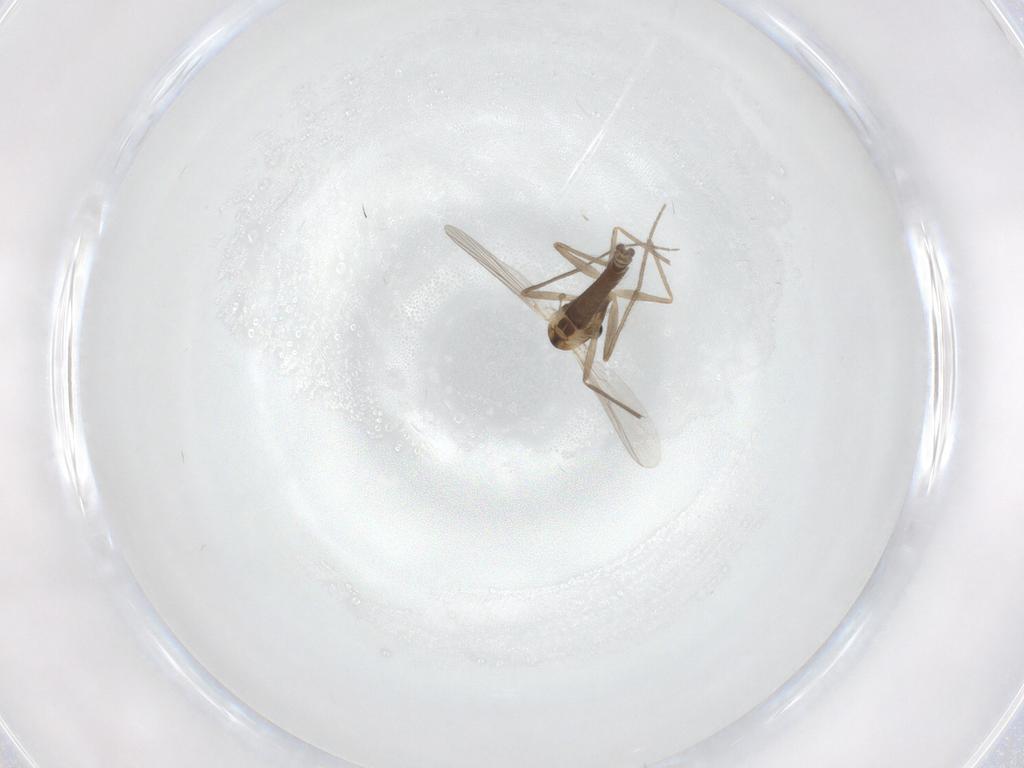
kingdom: Animalia
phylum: Arthropoda
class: Insecta
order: Diptera
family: Chironomidae
